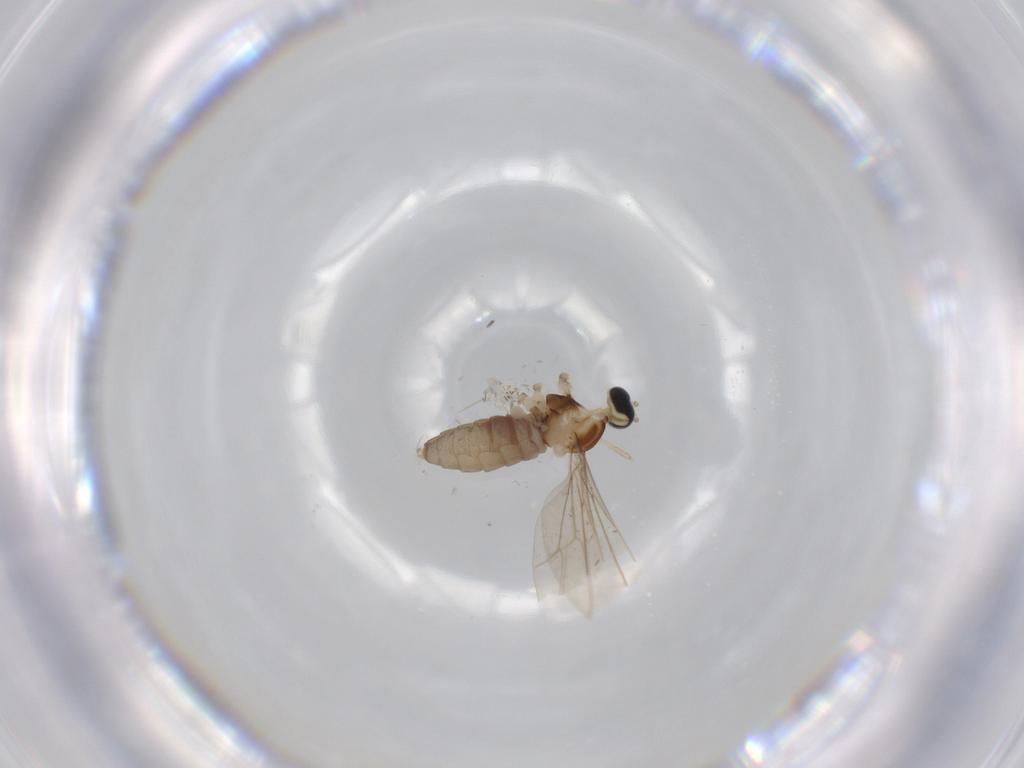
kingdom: Animalia
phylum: Arthropoda
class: Insecta
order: Diptera
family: Cecidomyiidae
